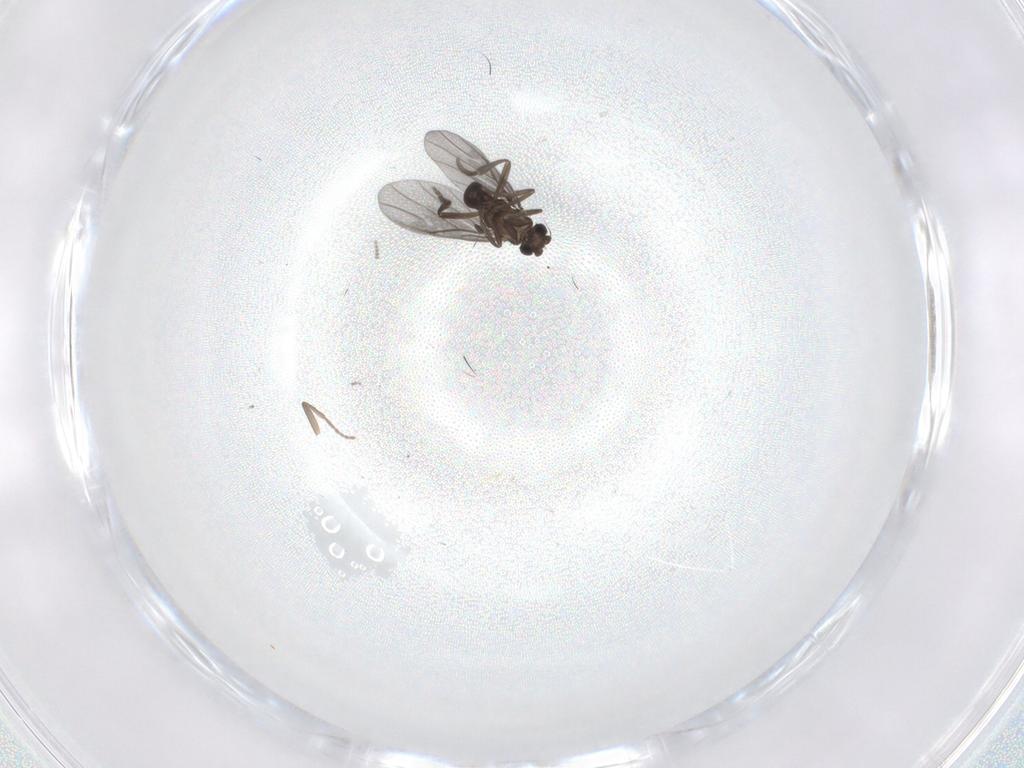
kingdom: Animalia
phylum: Arthropoda
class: Insecta
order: Diptera
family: Phoridae
